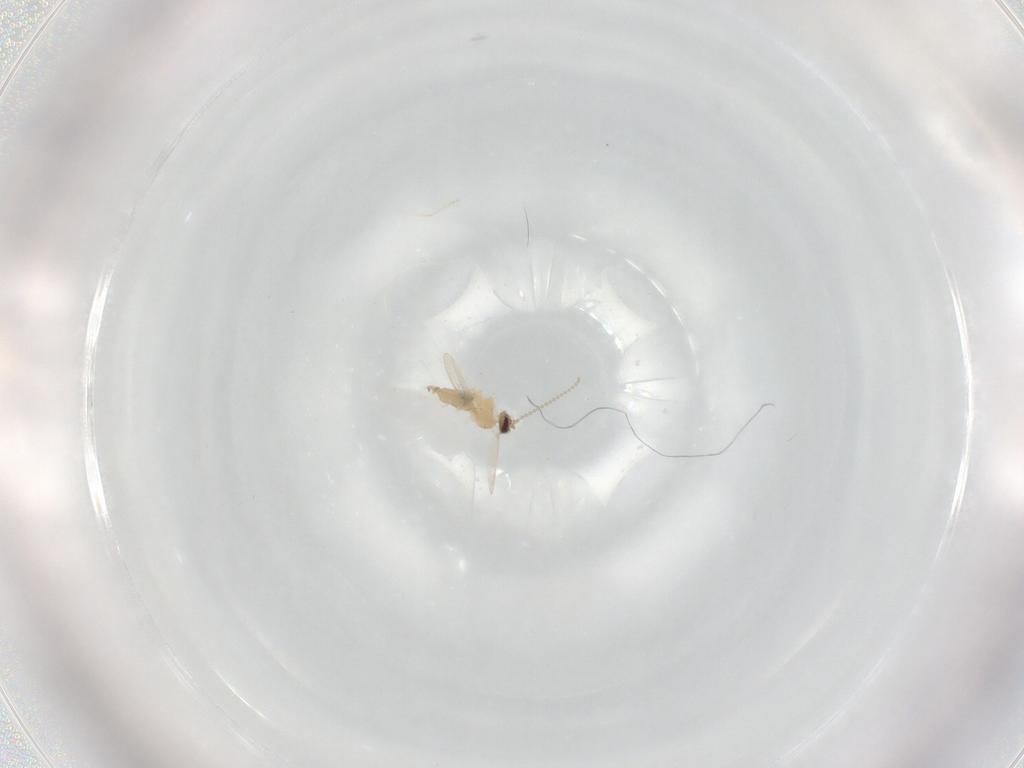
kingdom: Animalia
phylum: Arthropoda
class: Insecta
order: Diptera
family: Cecidomyiidae
